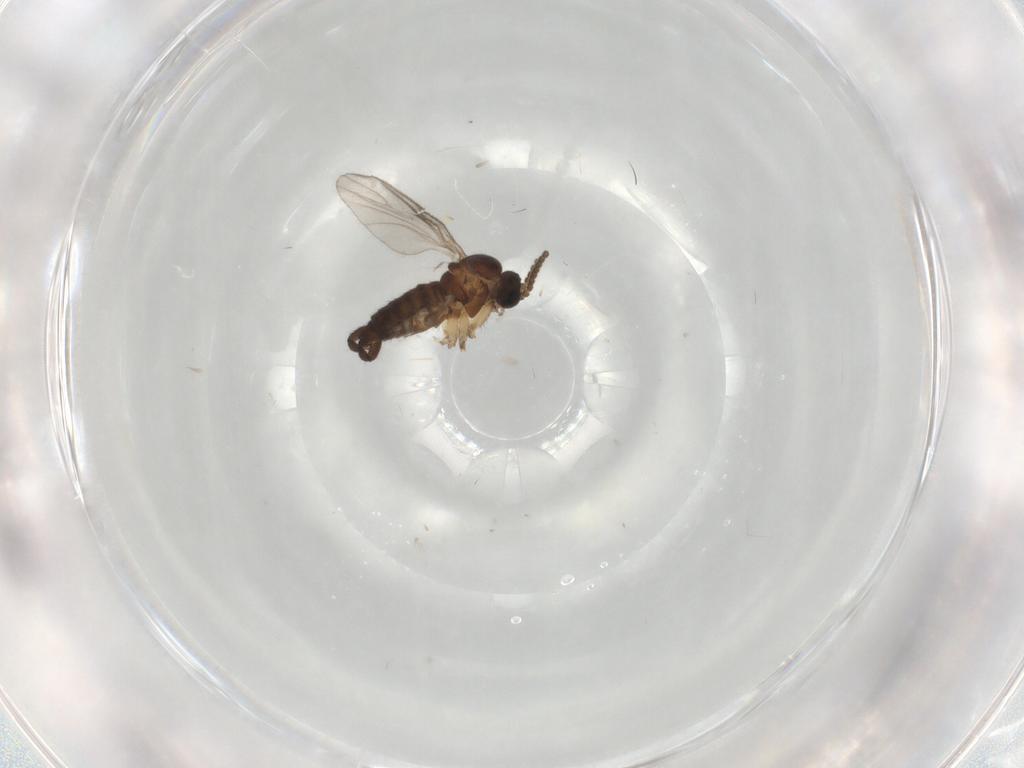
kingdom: Animalia
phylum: Arthropoda
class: Insecta
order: Diptera
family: Sciaridae
